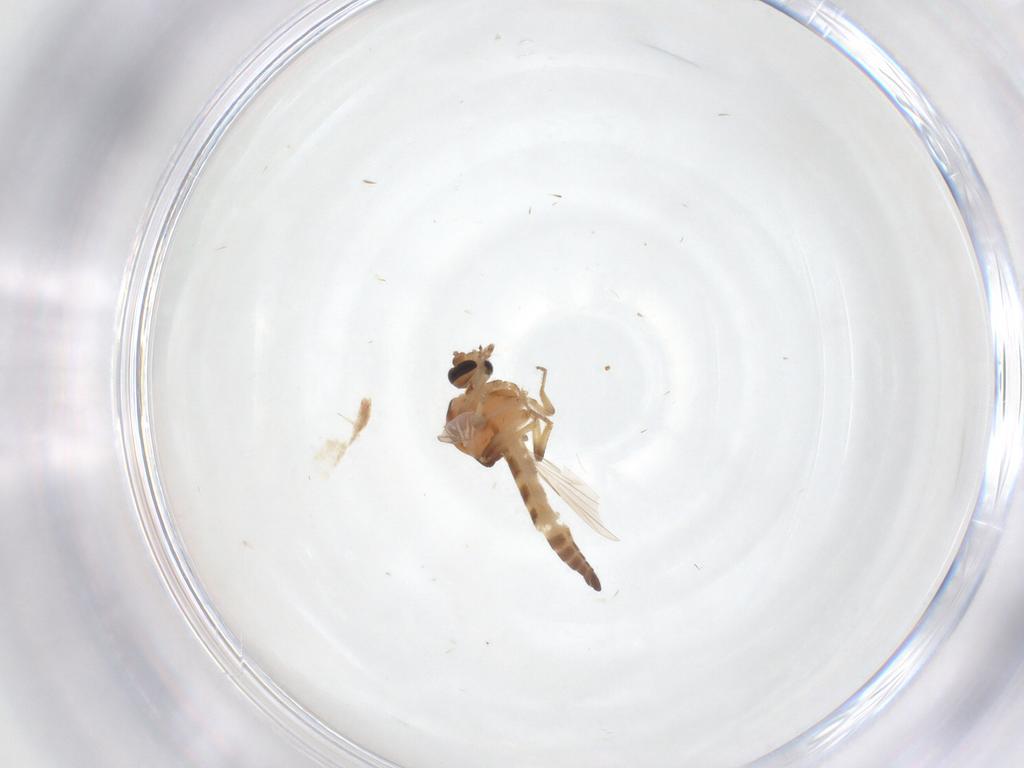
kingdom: Animalia
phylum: Arthropoda
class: Insecta
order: Diptera
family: Ceratopogonidae
